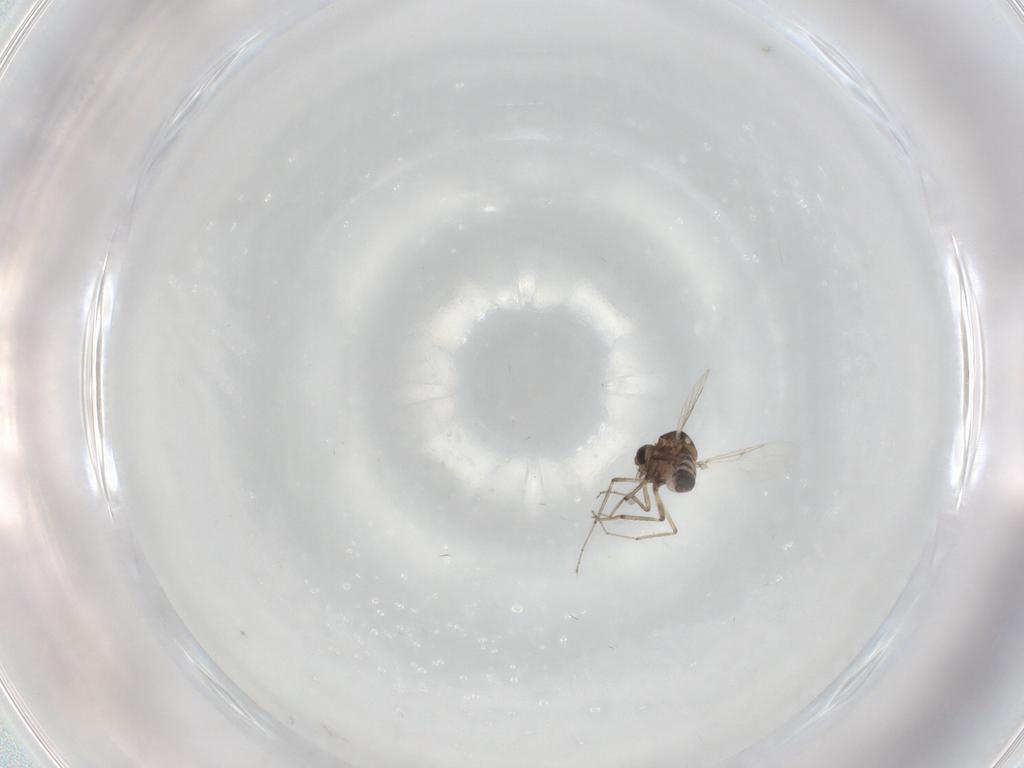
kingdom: Animalia
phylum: Arthropoda
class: Insecta
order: Diptera
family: Ceratopogonidae
